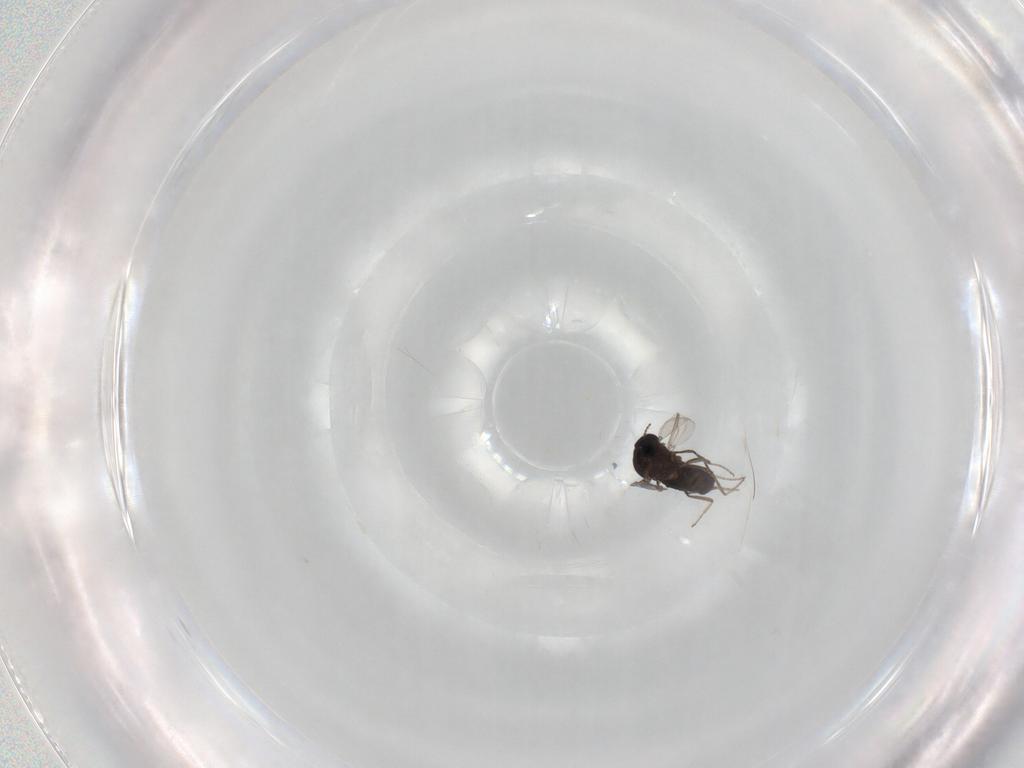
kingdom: Animalia
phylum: Arthropoda
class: Insecta
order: Diptera
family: Ceratopogonidae
